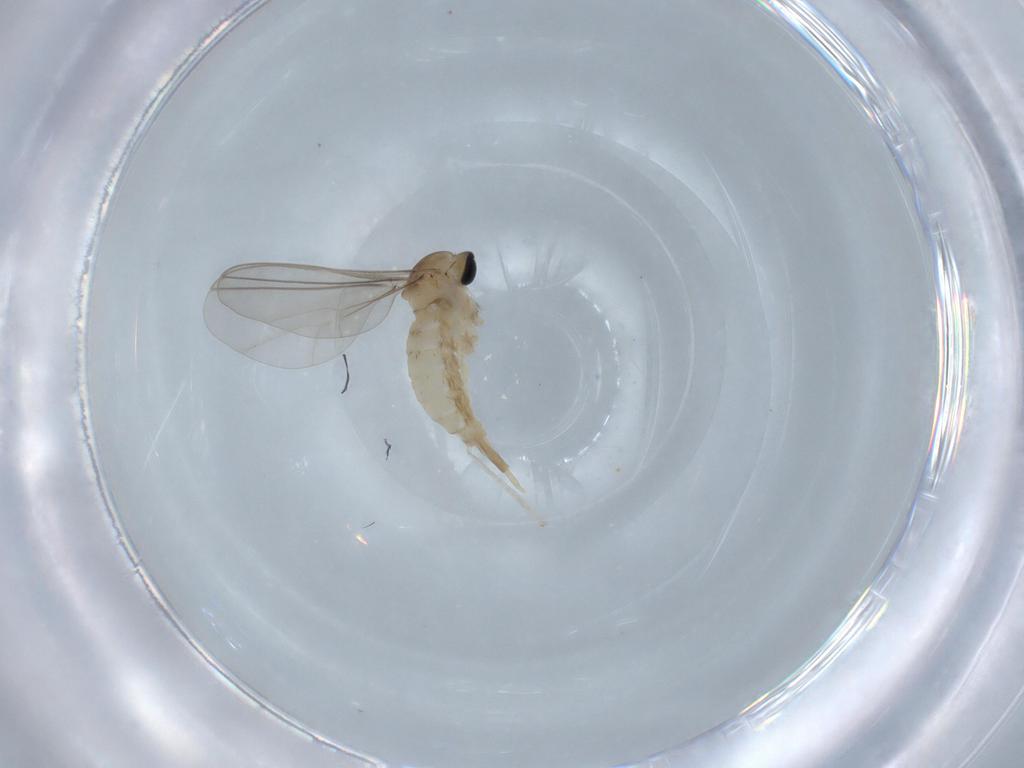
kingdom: Animalia
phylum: Arthropoda
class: Insecta
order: Diptera
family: Cecidomyiidae
